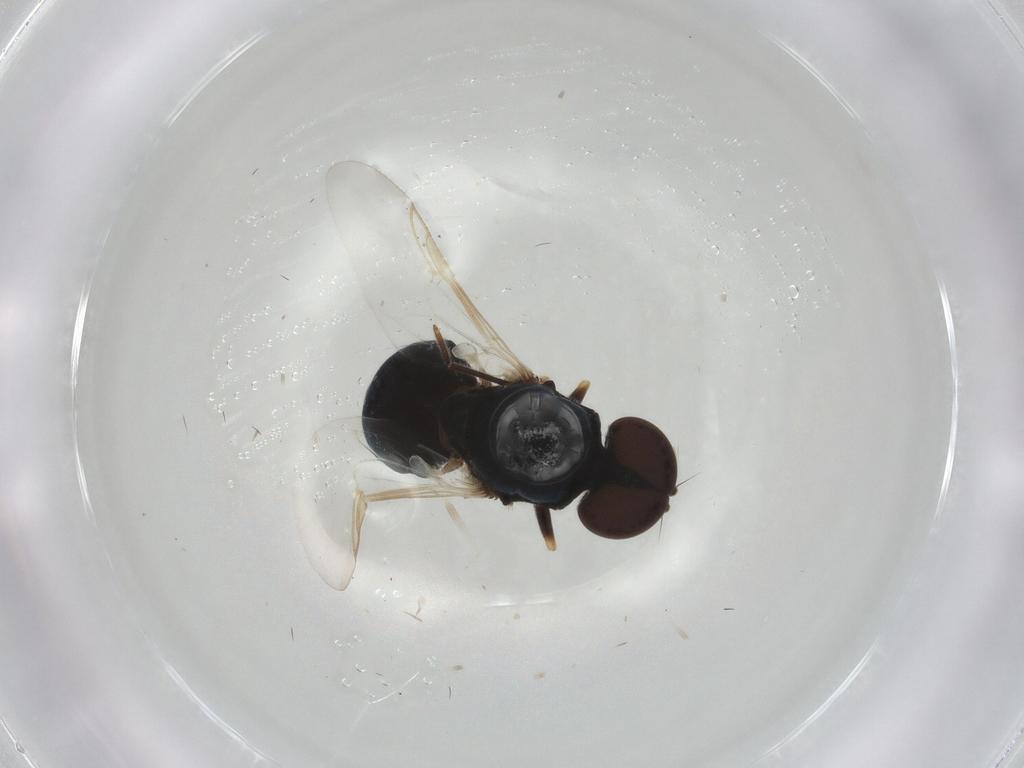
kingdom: Animalia
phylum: Arthropoda
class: Insecta
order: Diptera
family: Stratiomyidae
